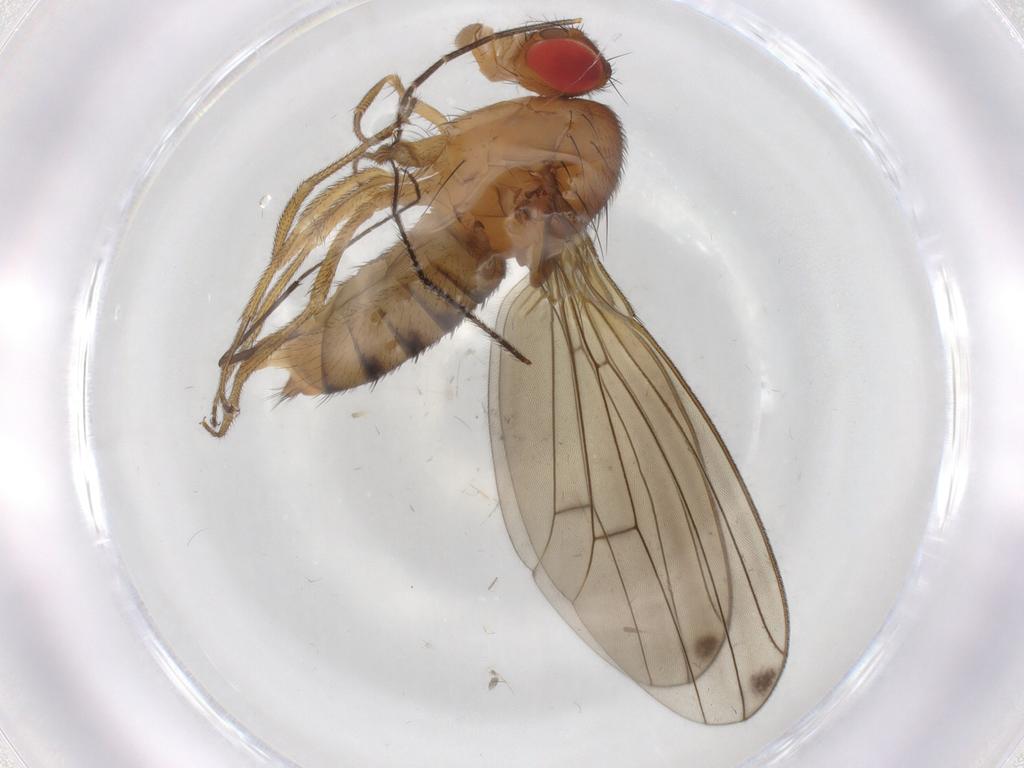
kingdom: Animalia
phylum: Arthropoda
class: Insecta
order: Diptera
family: Drosophilidae
